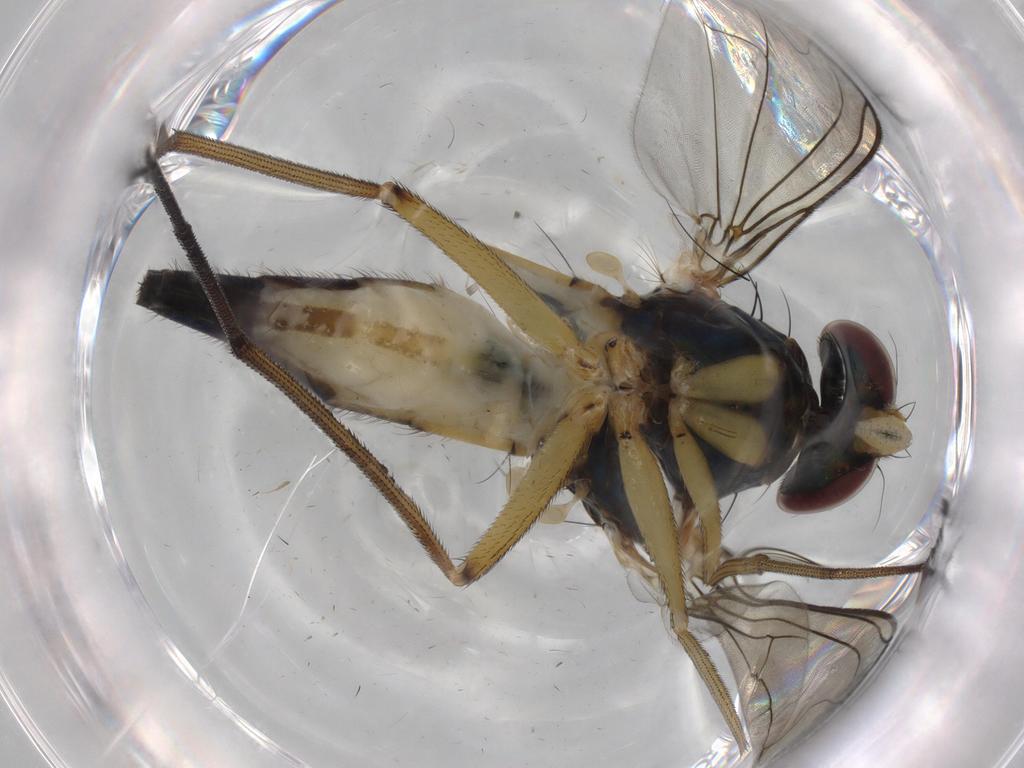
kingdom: Animalia
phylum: Arthropoda
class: Insecta
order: Diptera
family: Dolichopodidae
